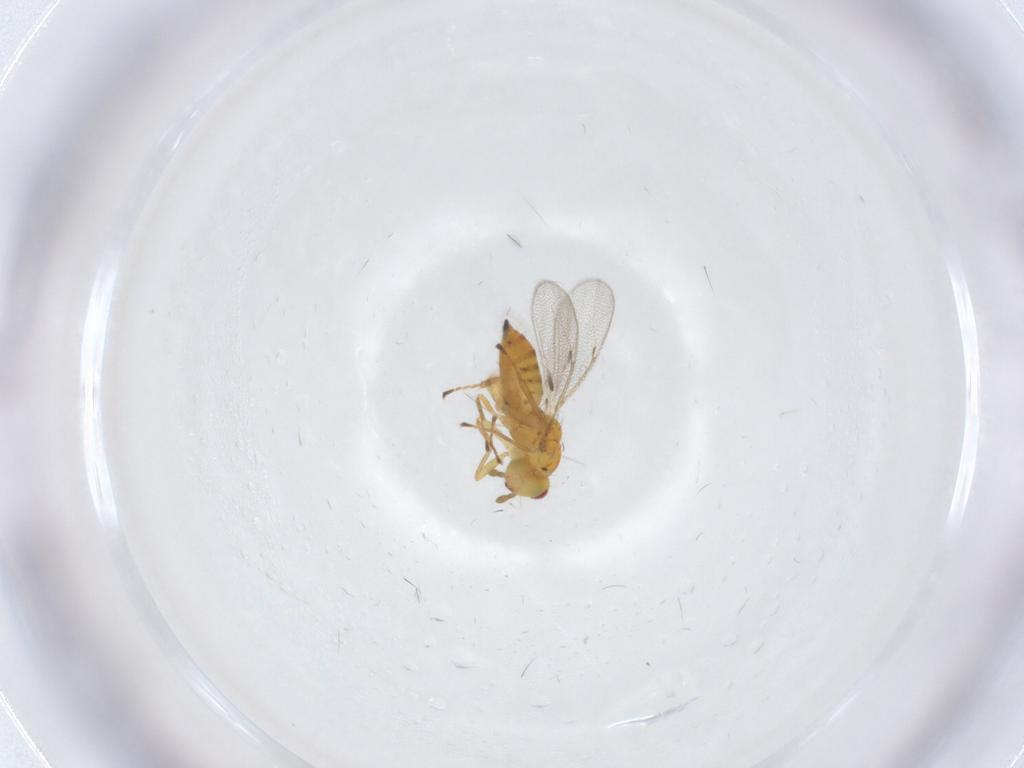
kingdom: Animalia
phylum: Arthropoda
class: Insecta
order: Hymenoptera
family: Eulophidae
